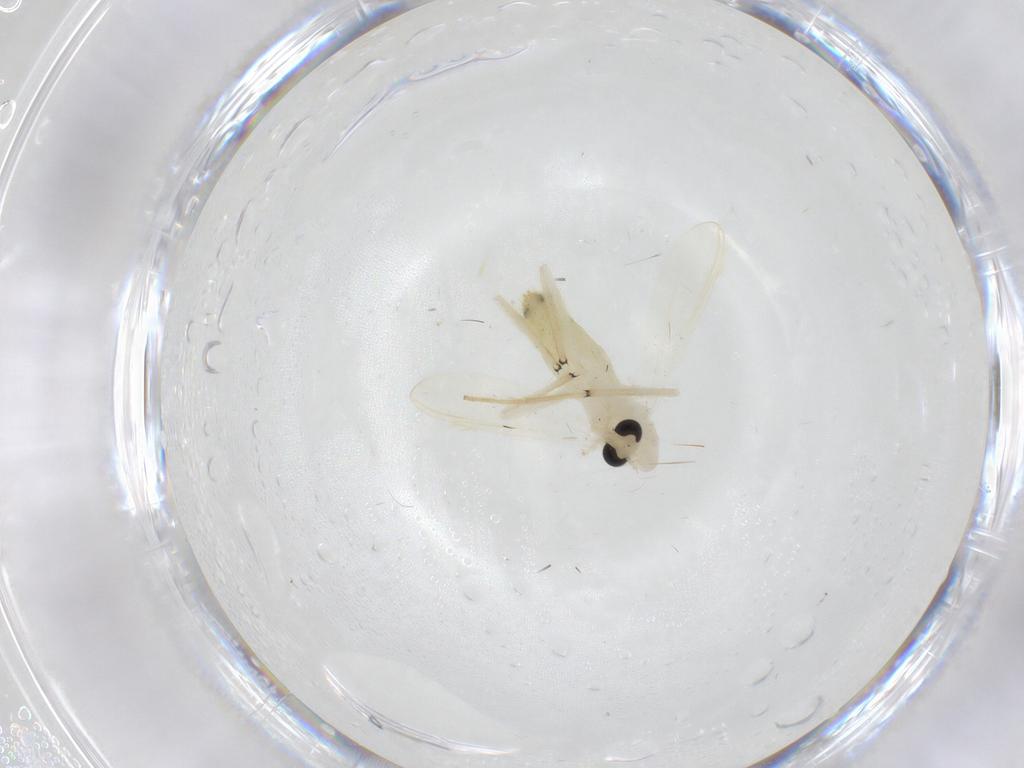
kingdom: Animalia
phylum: Arthropoda
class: Insecta
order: Diptera
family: Chironomidae
